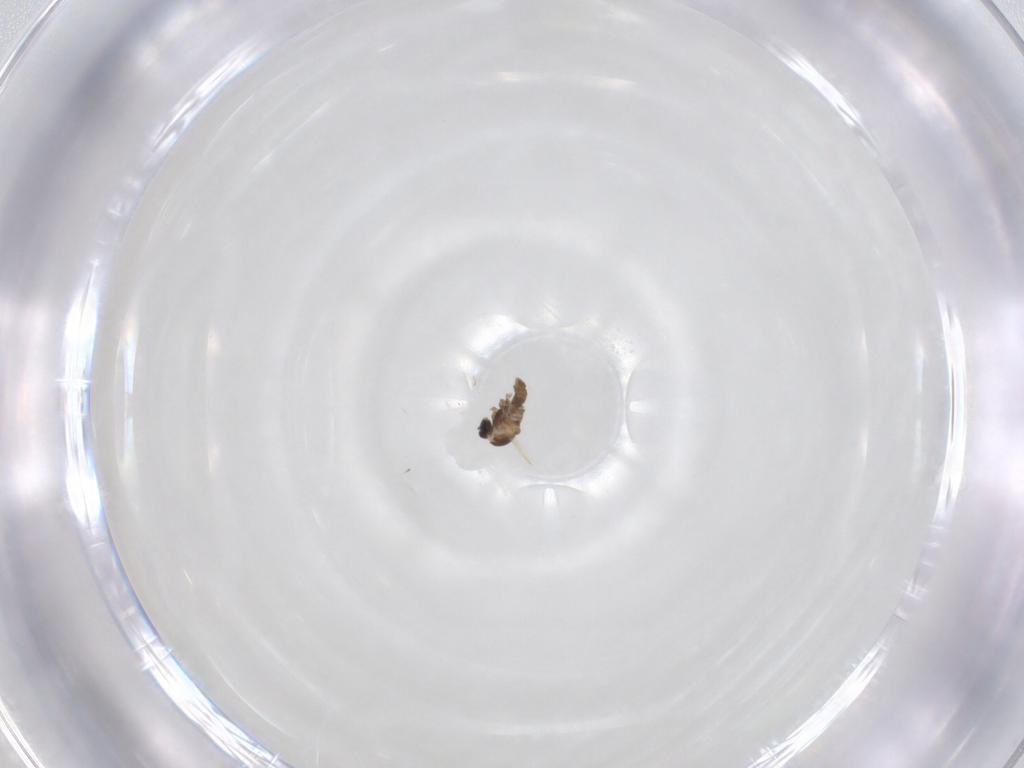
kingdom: Animalia
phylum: Arthropoda
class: Insecta
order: Diptera
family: Cecidomyiidae
